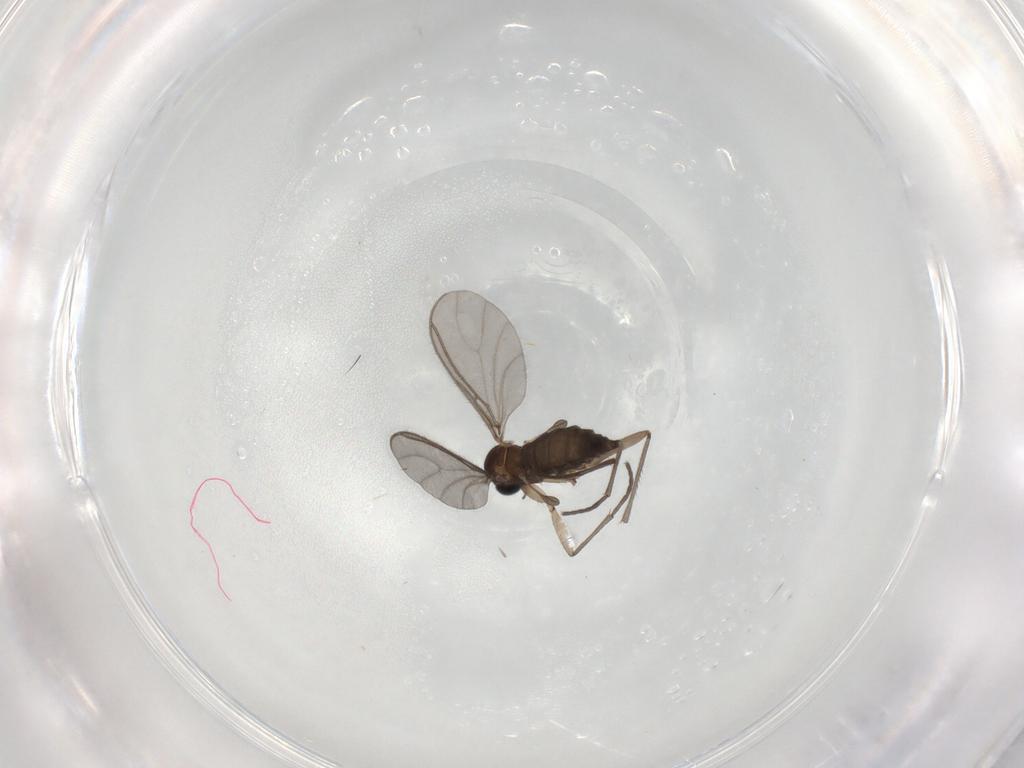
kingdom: Animalia
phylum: Arthropoda
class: Insecta
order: Diptera
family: Sciaridae
